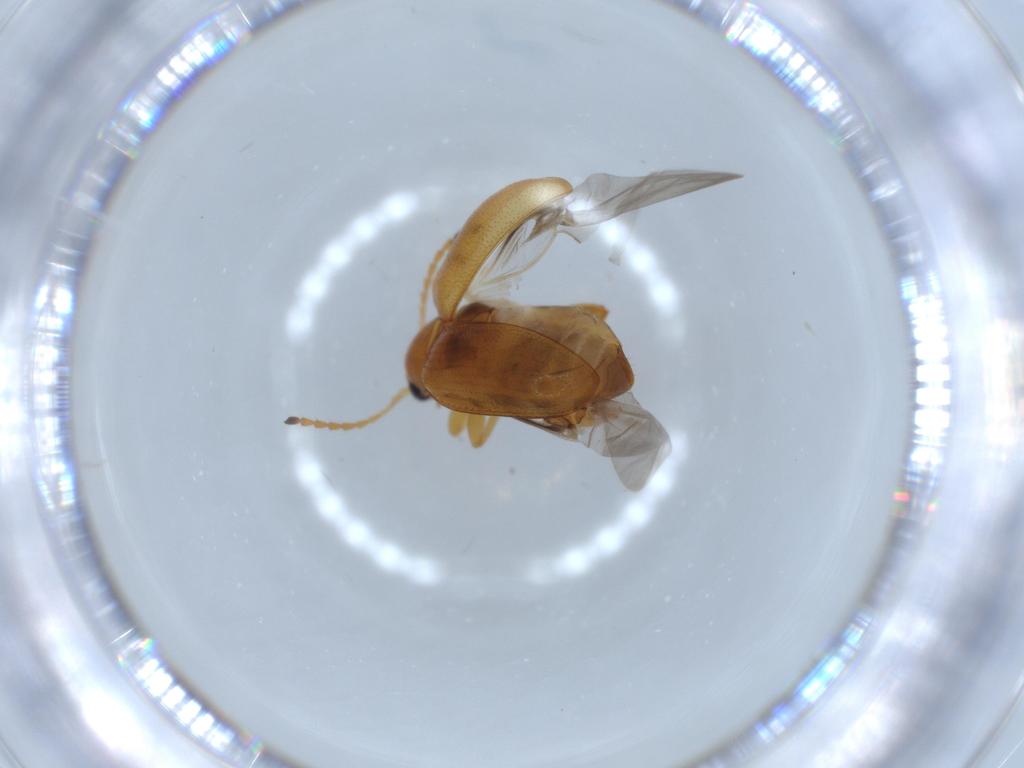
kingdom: Animalia
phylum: Arthropoda
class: Insecta
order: Coleoptera
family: Chrysomelidae
